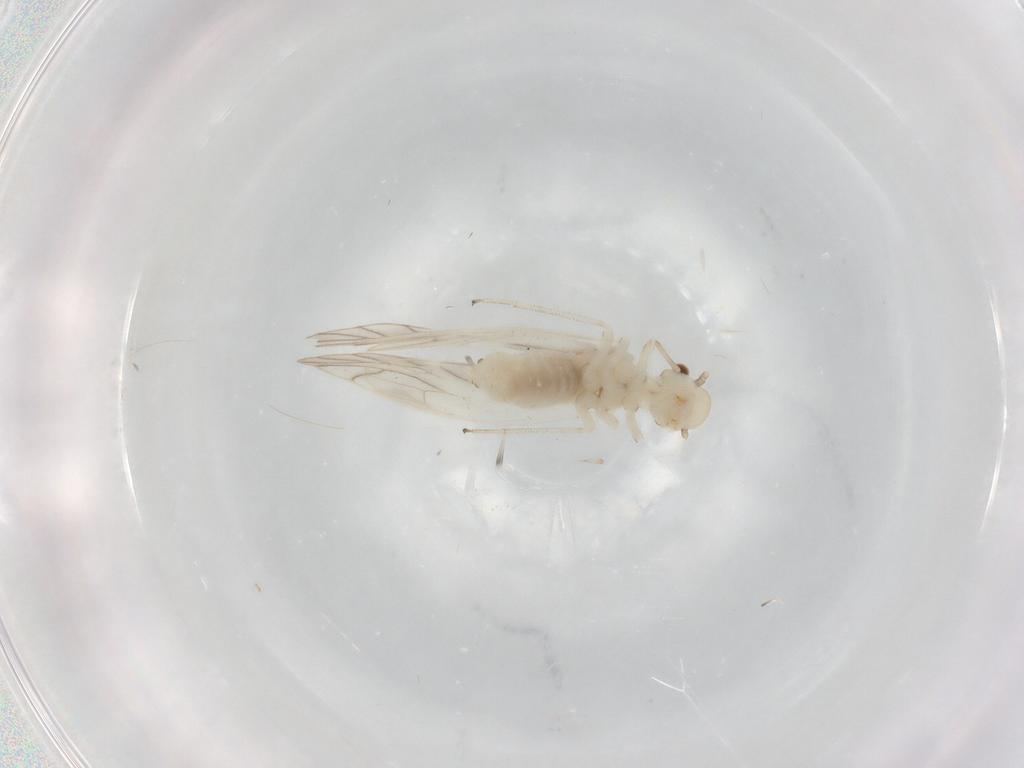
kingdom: Animalia
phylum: Arthropoda
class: Insecta
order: Psocodea
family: Caeciliusidae
